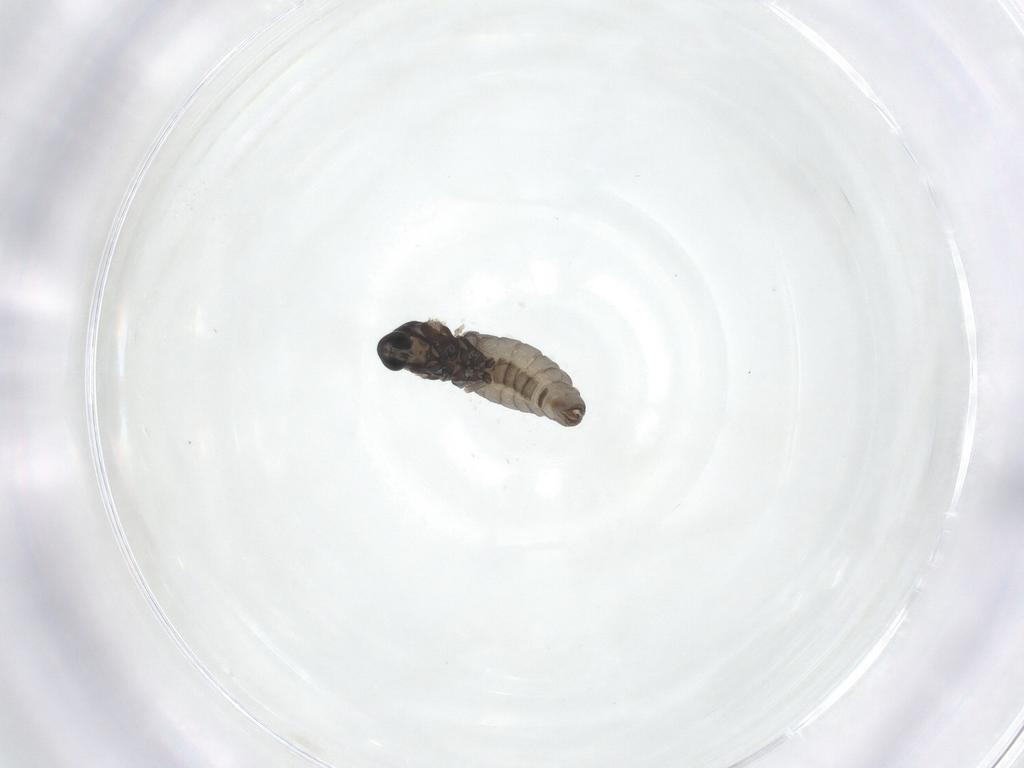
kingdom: Animalia
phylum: Arthropoda
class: Insecta
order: Diptera
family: Cecidomyiidae
